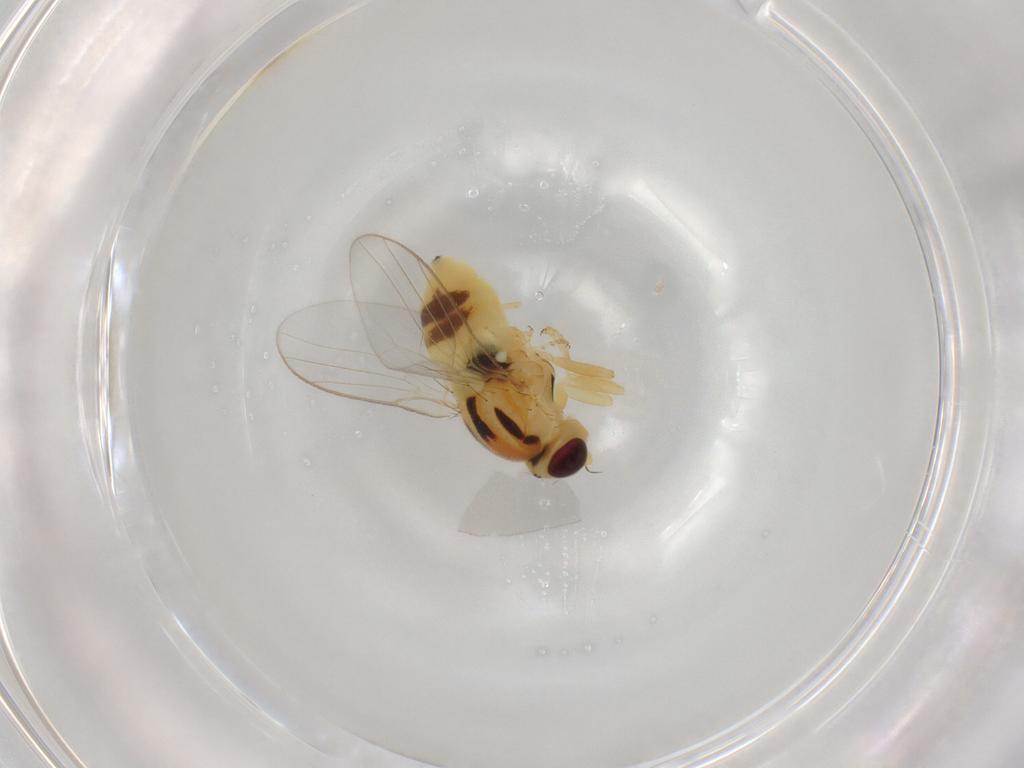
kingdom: Animalia
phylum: Arthropoda
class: Insecta
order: Diptera
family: Chloropidae
